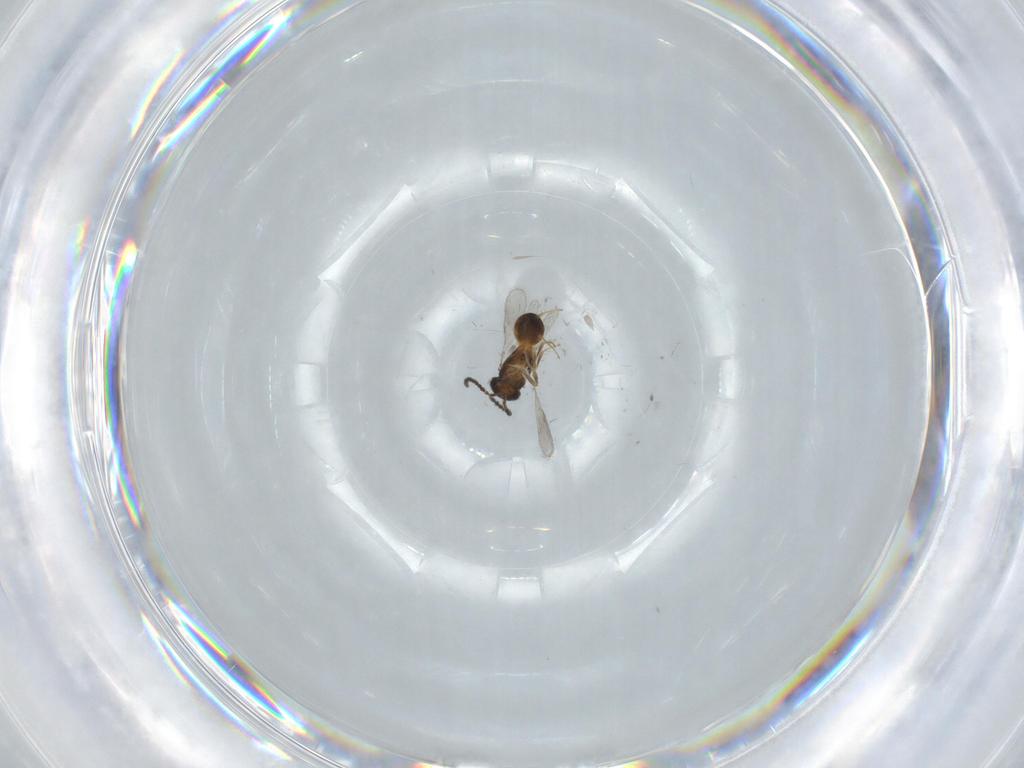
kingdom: Animalia
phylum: Arthropoda
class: Insecta
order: Hymenoptera
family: Scelionidae
